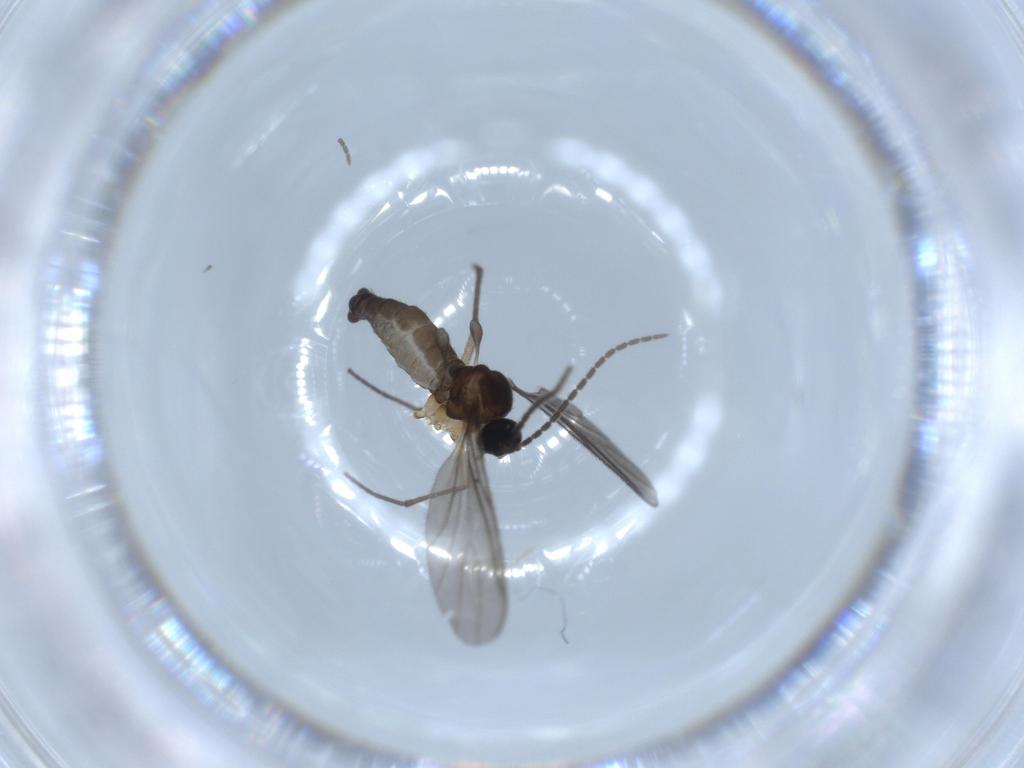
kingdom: Animalia
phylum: Arthropoda
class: Insecta
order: Diptera
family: Sciaridae
